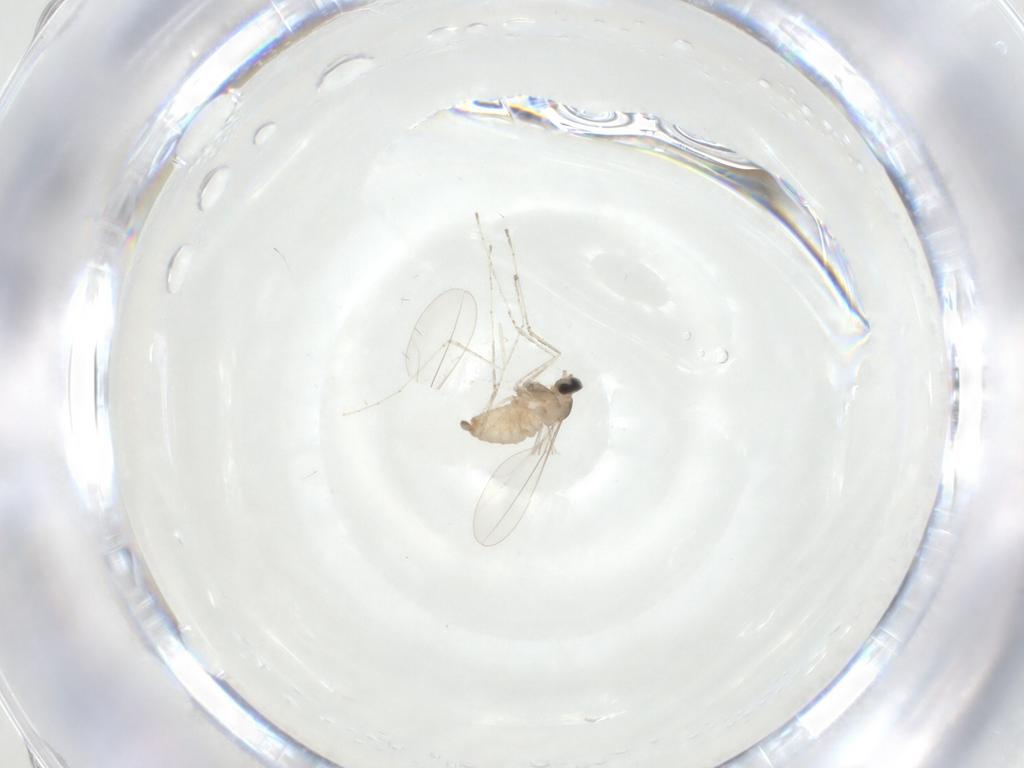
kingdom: Animalia
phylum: Arthropoda
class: Insecta
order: Diptera
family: Cecidomyiidae
